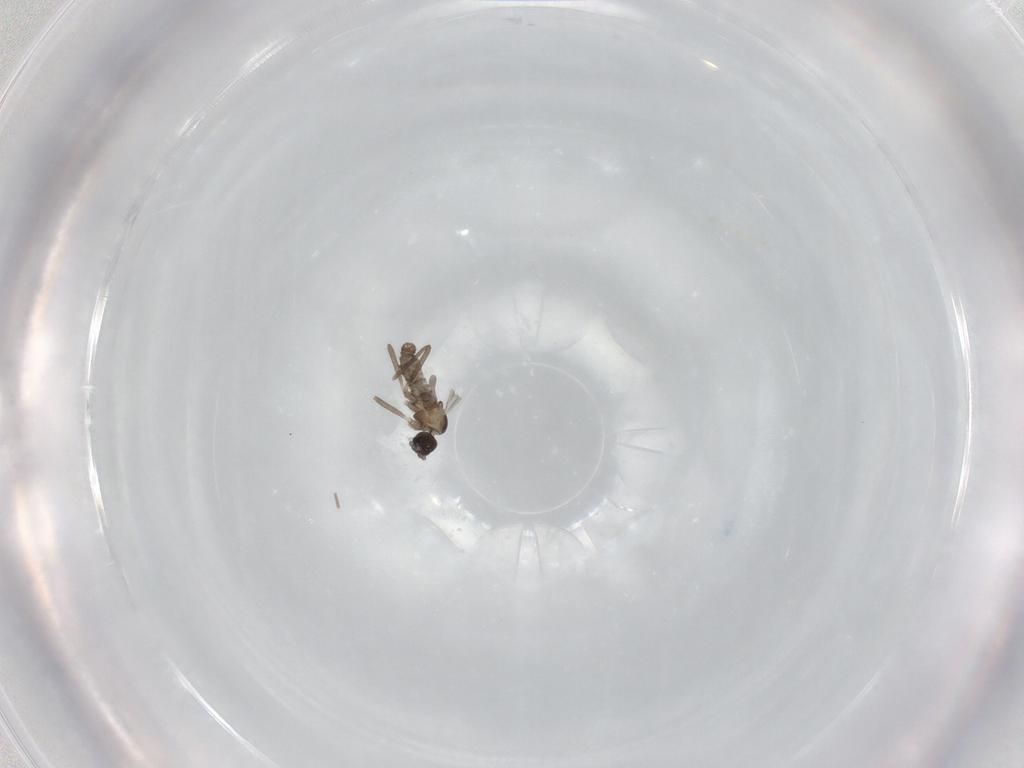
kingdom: Animalia
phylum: Arthropoda
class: Insecta
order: Diptera
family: Cecidomyiidae
